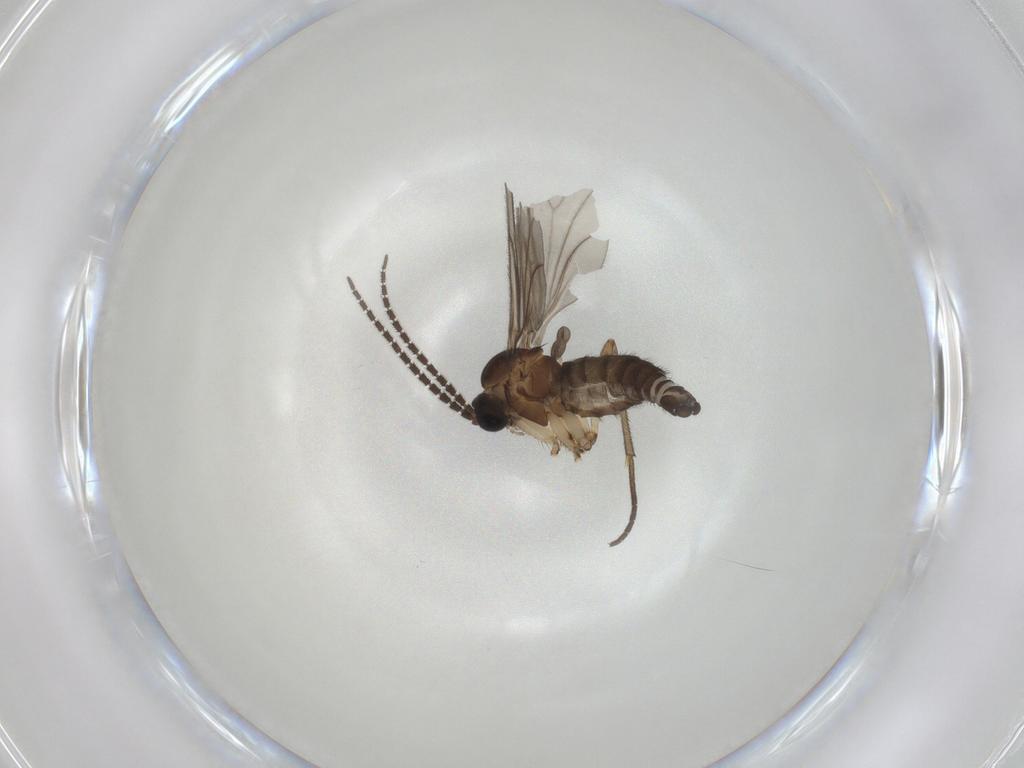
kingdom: Animalia
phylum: Arthropoda
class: Insecta
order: Diptera
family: Sciaridae
